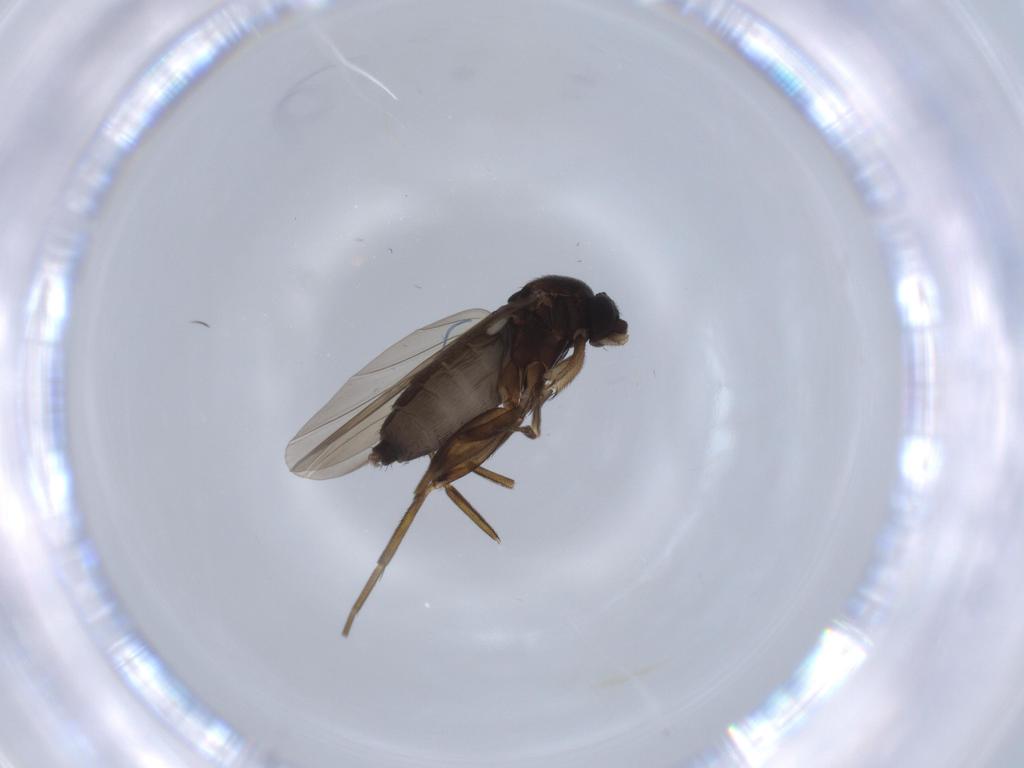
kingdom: Animalia
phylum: Arthropoda
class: Insecta
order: Diptera
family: Phoridae
